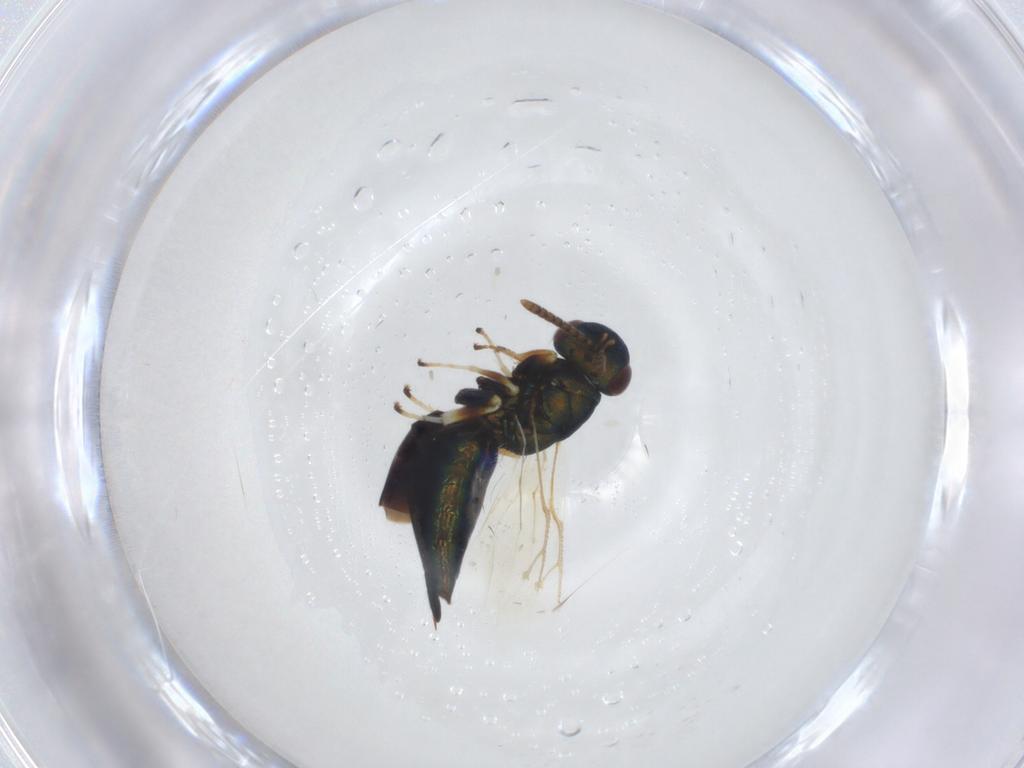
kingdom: Animalia
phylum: Arthropoda
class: Insecta
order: Hymenoptera
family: Pteromalidae
